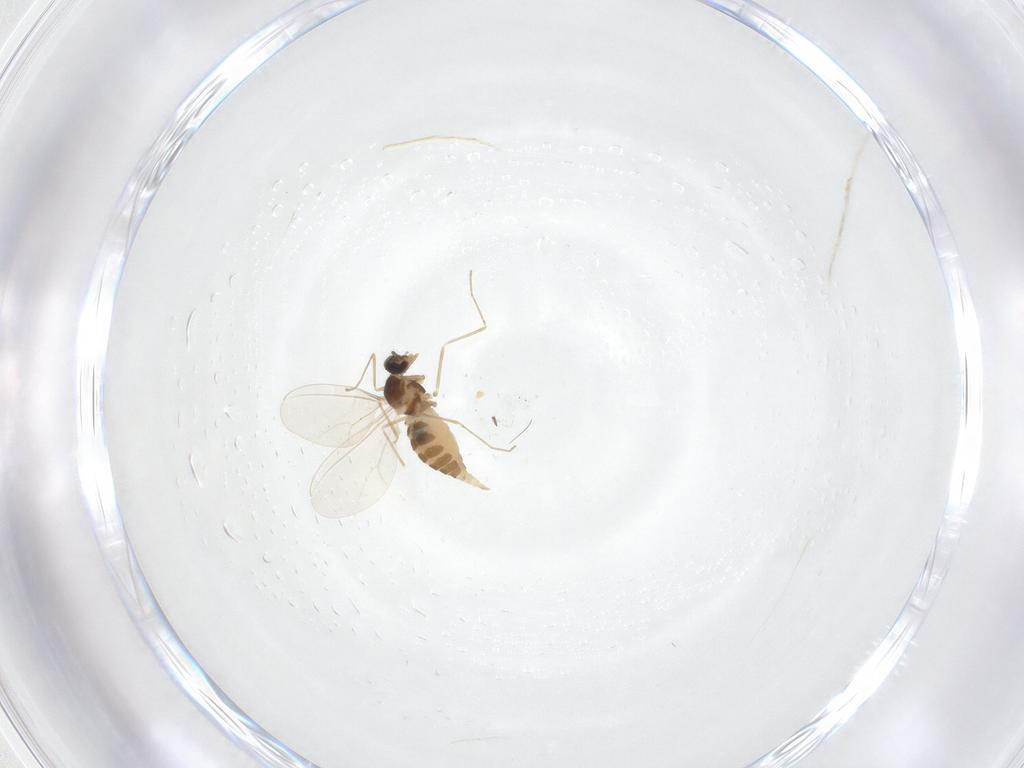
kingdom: Animalia
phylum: Arthropoda
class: Insecta
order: Diptera
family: Cecidomyiidae
